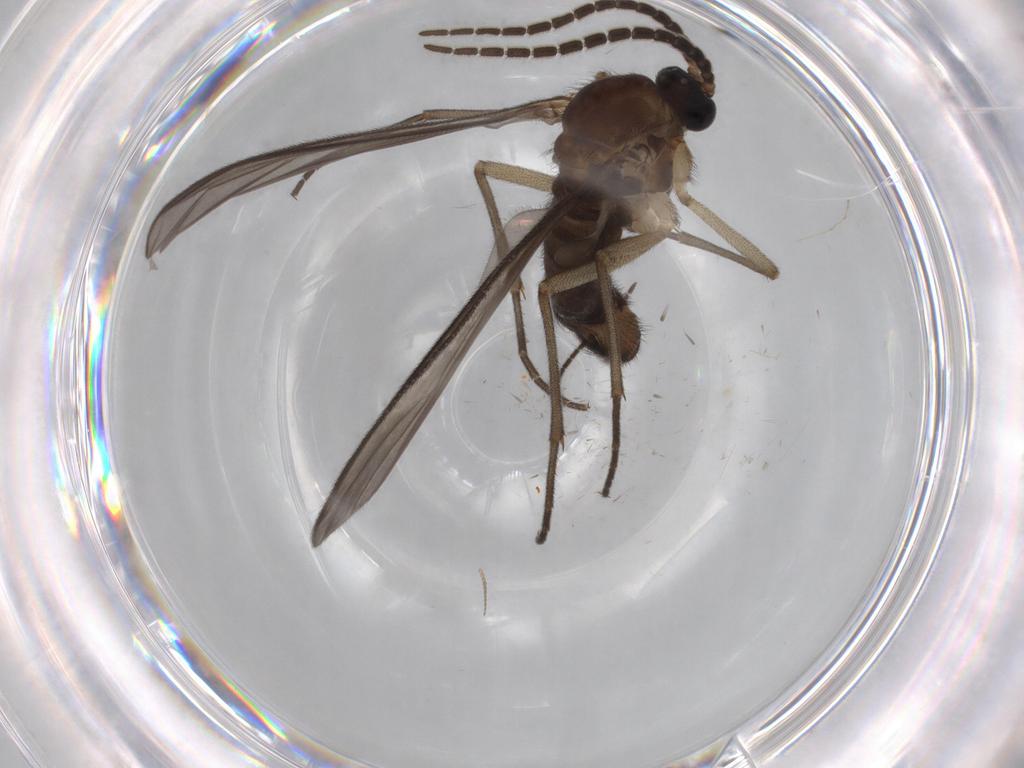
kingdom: Animalia
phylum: Arthropoda
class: Insecta
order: Diptera
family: Sciaridae
